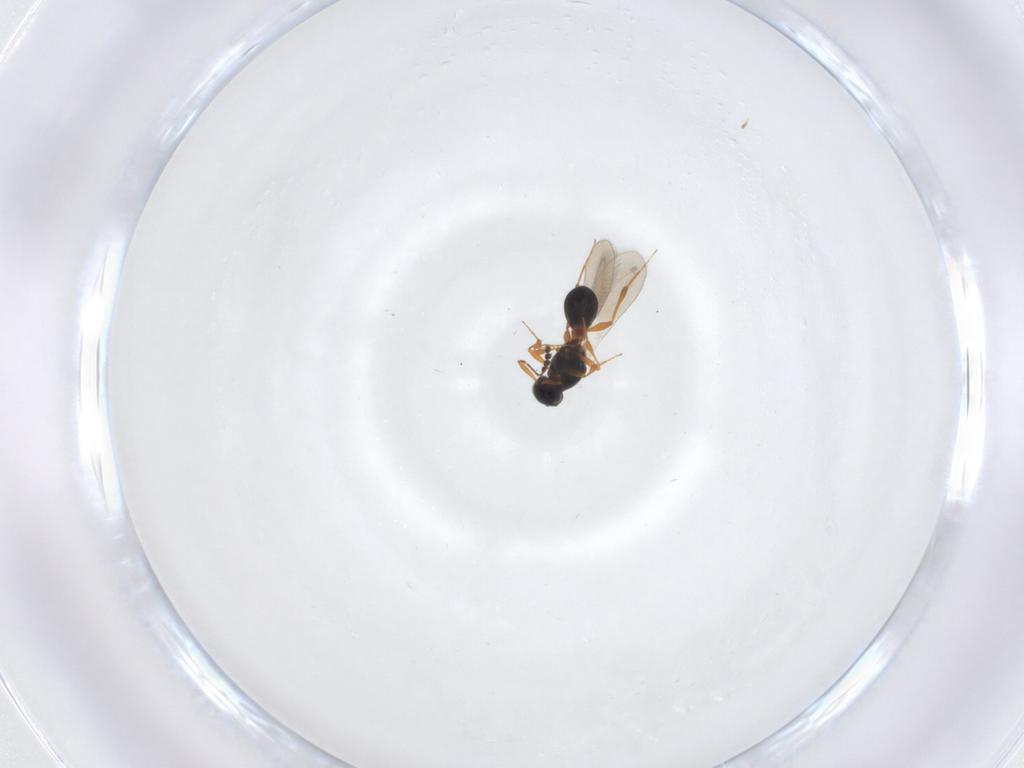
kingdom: Animalia
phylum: Arthropoda
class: Insecta
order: Hymenoptera
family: Platygastridae
